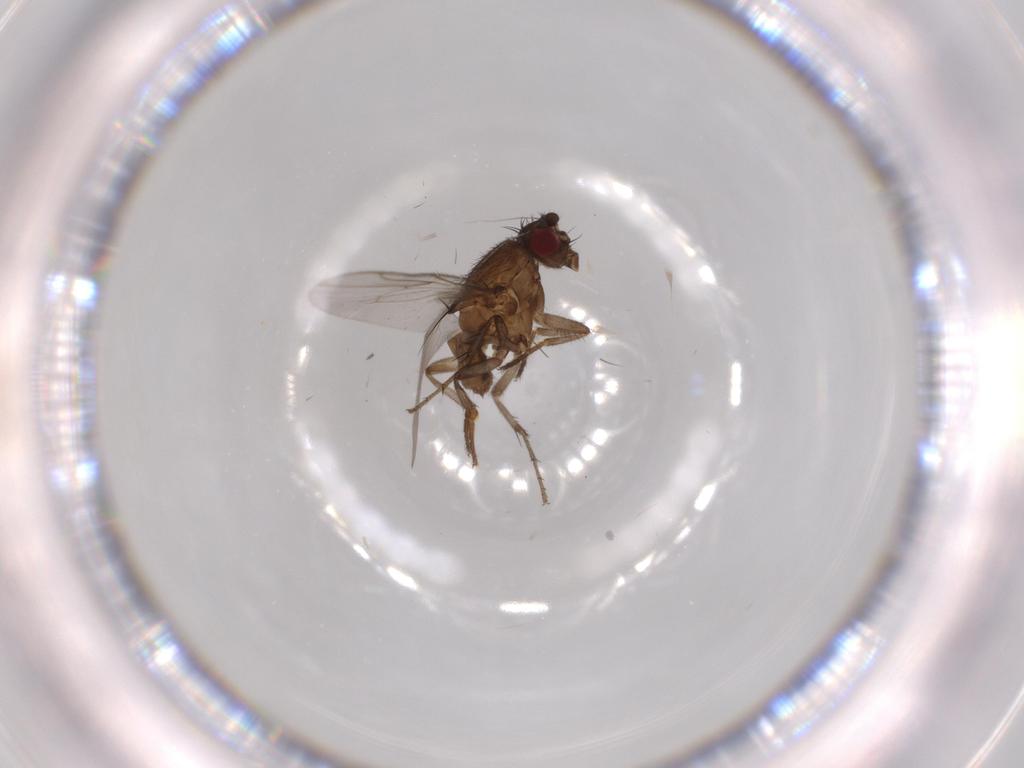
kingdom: Animalia
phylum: Arthropoda
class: Insecta
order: Diptera
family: Sphaeroceridae
